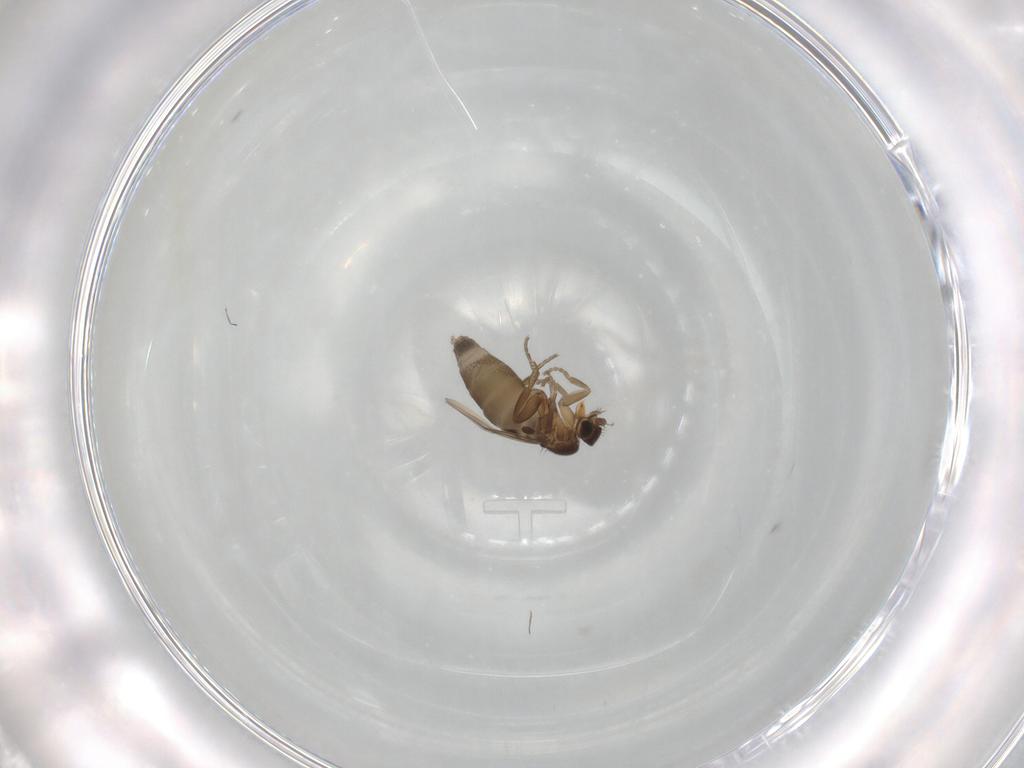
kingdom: Animalia
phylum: Arthropoda
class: Insecta
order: Diptera
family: Phoridae
